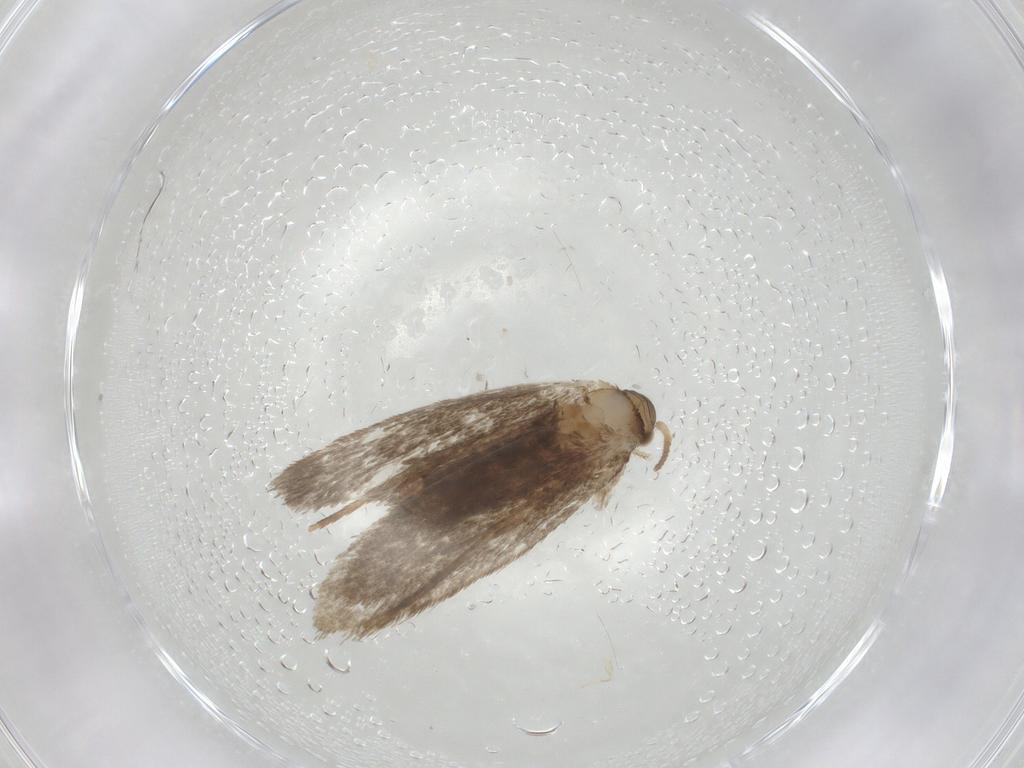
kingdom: Animalia
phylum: Arthropoda
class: Insecta
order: Lepidoptera
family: Dryadaulidae
